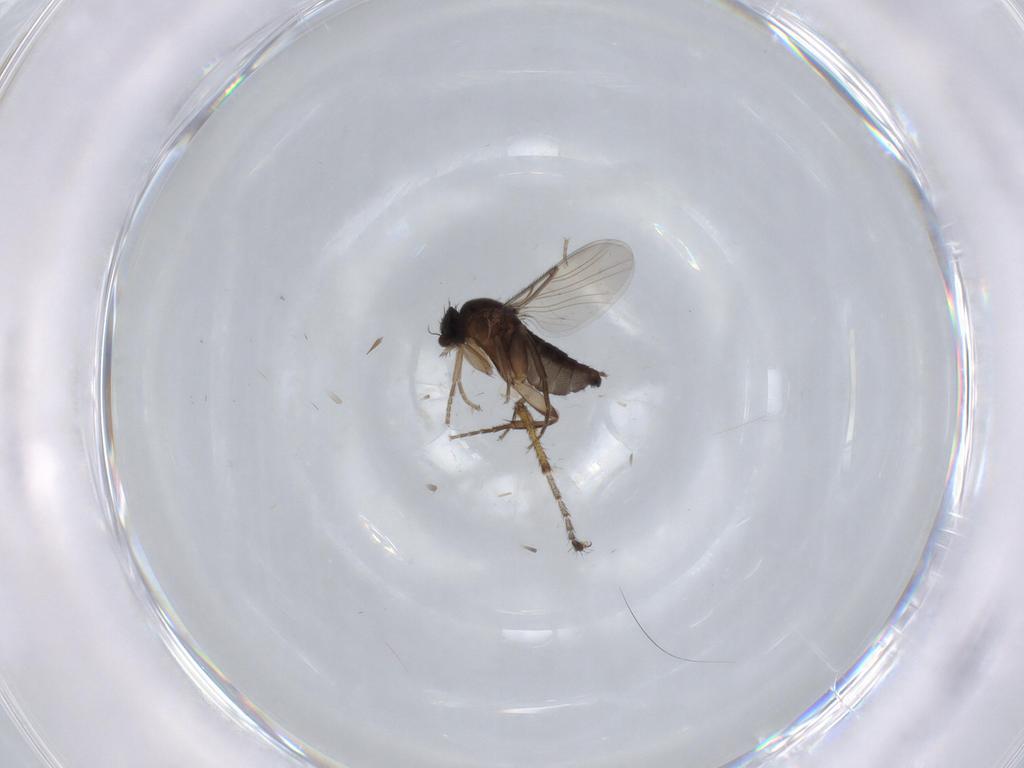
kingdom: Animalia
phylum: Arthropoda
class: Insecta
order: Diptera
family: Phoridae
